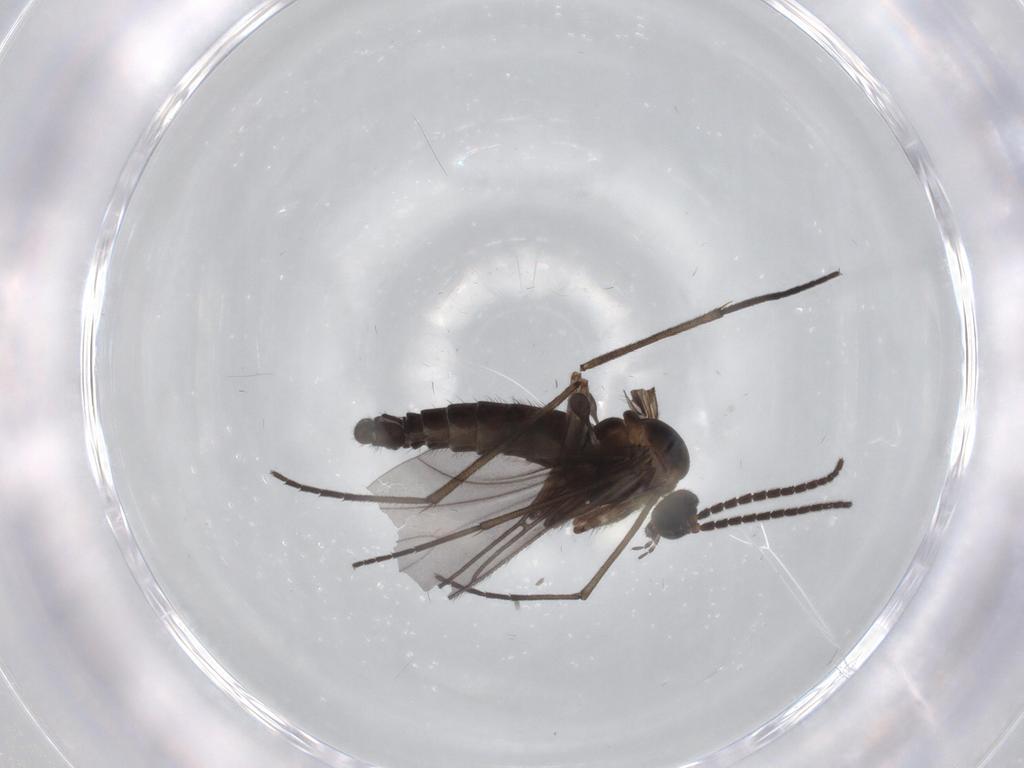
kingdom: Animalia
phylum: Arthropoda
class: Insecta
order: Diptera
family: Sciaridae
